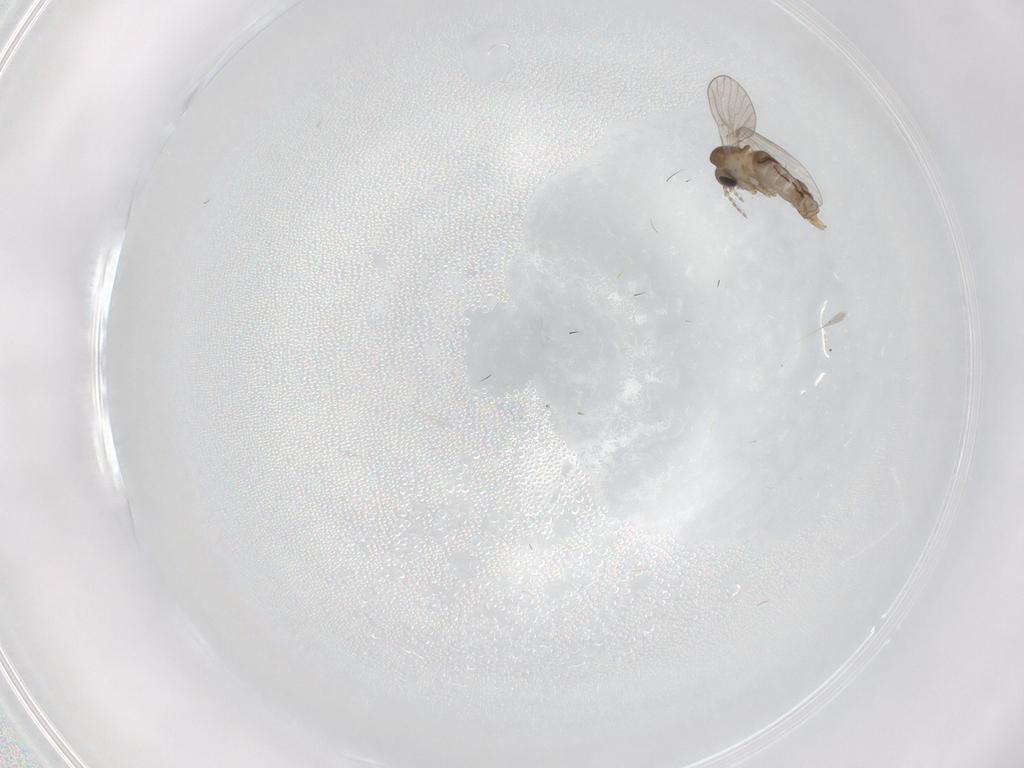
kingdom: Animalia
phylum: Arthropoda
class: Insecta
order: Diptera
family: Psychodidae
